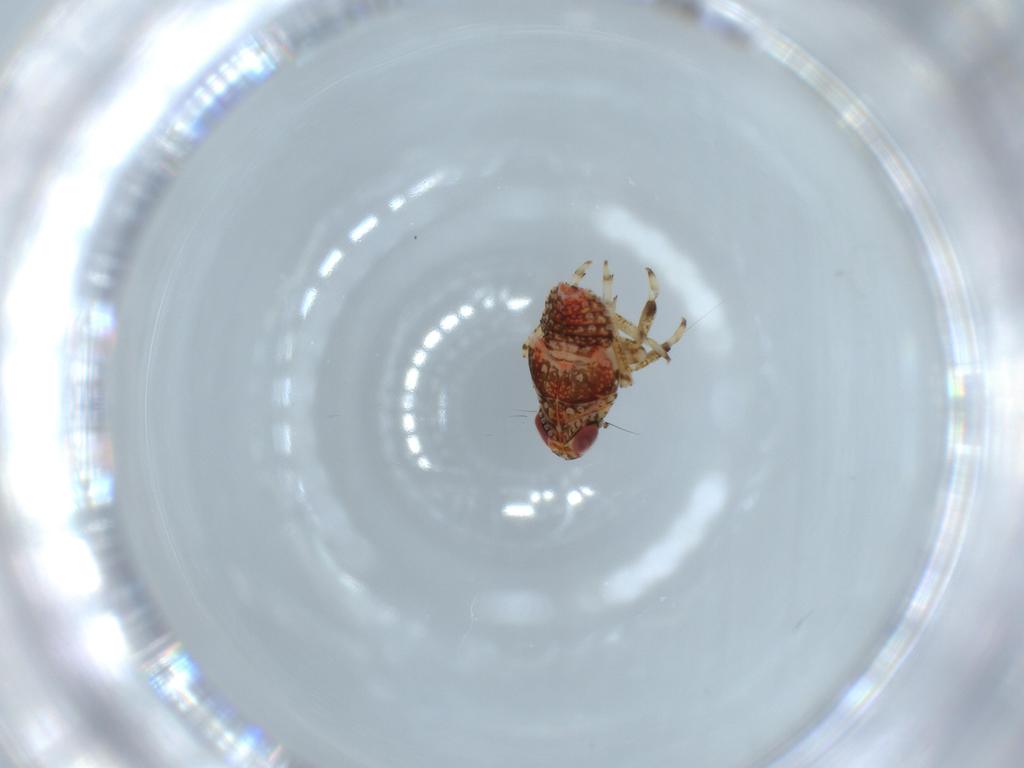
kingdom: Animalia
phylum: Arthropoda
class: Insecta
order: Hemiptera
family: Issidae
